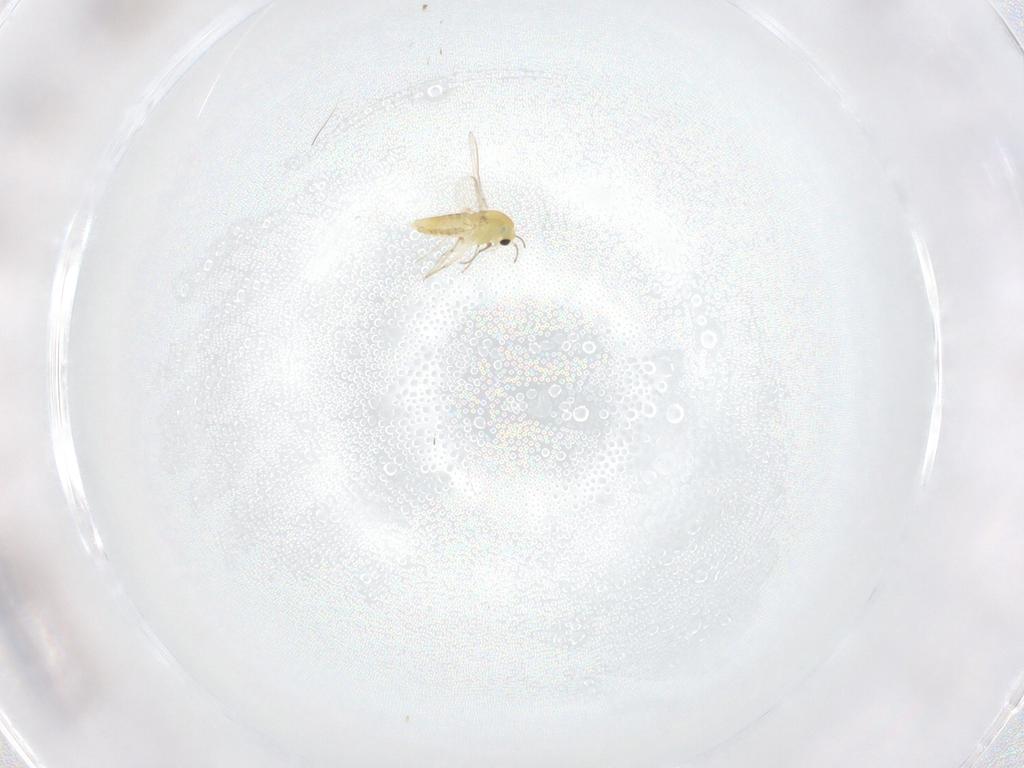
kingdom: Animalia
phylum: Arthropoda
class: Insecta
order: Diptera
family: Chironomidae
